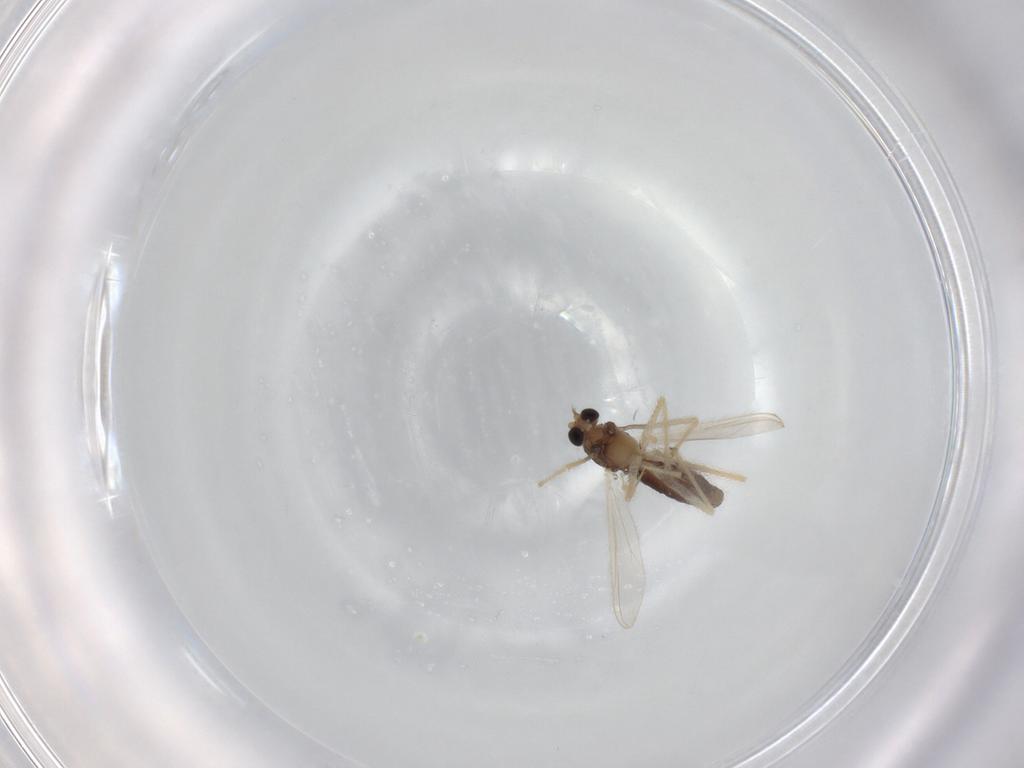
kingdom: Animalia
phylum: Arthropoda
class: Insecta
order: Diptera
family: Chironomidae
